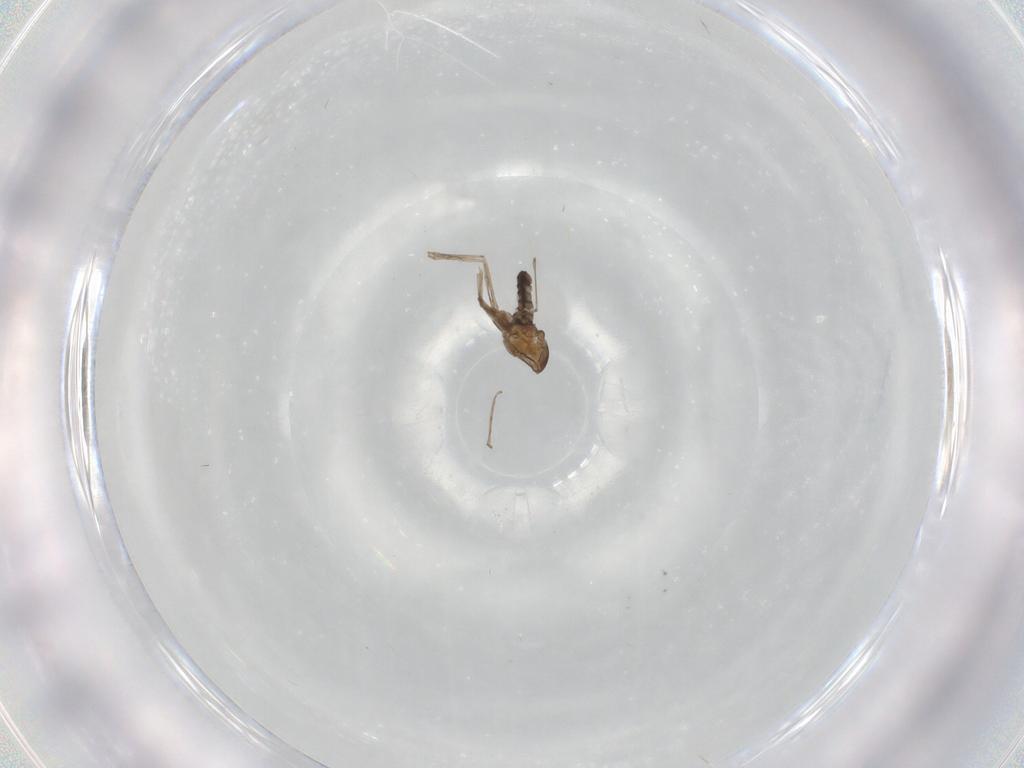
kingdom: Animalia
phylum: Arthropoda
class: Insecta
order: Diptera
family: Cecidomyiidae
